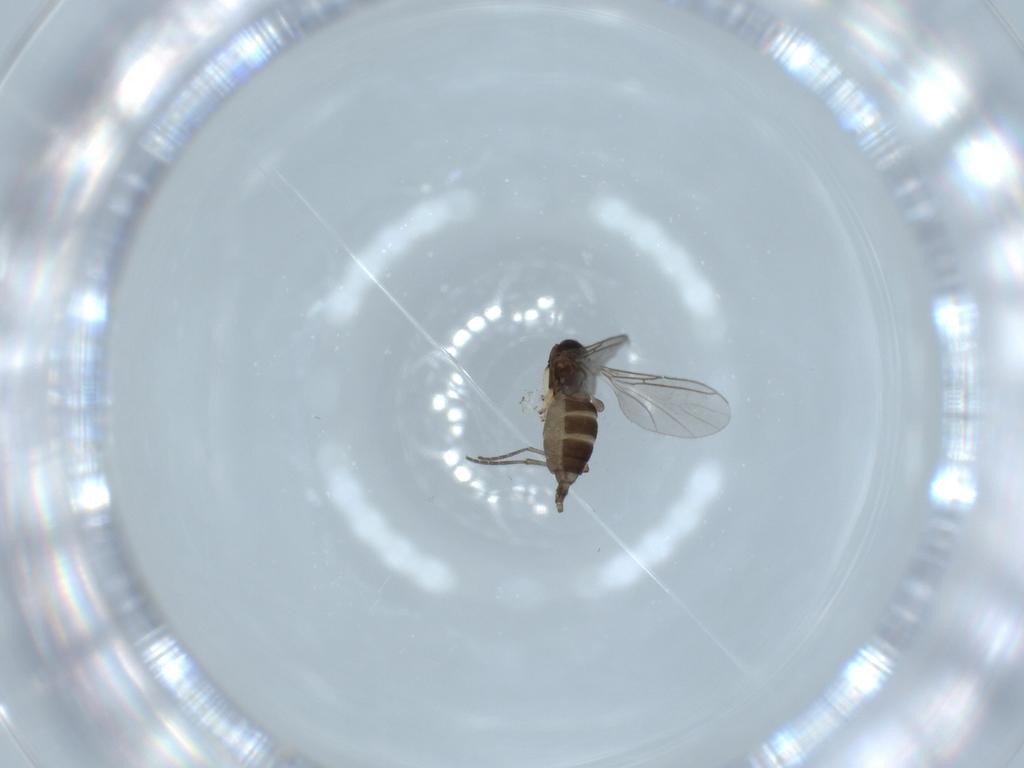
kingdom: Animalia
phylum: Arthropoda
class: Insecta
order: Diptera
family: Sciaridae
